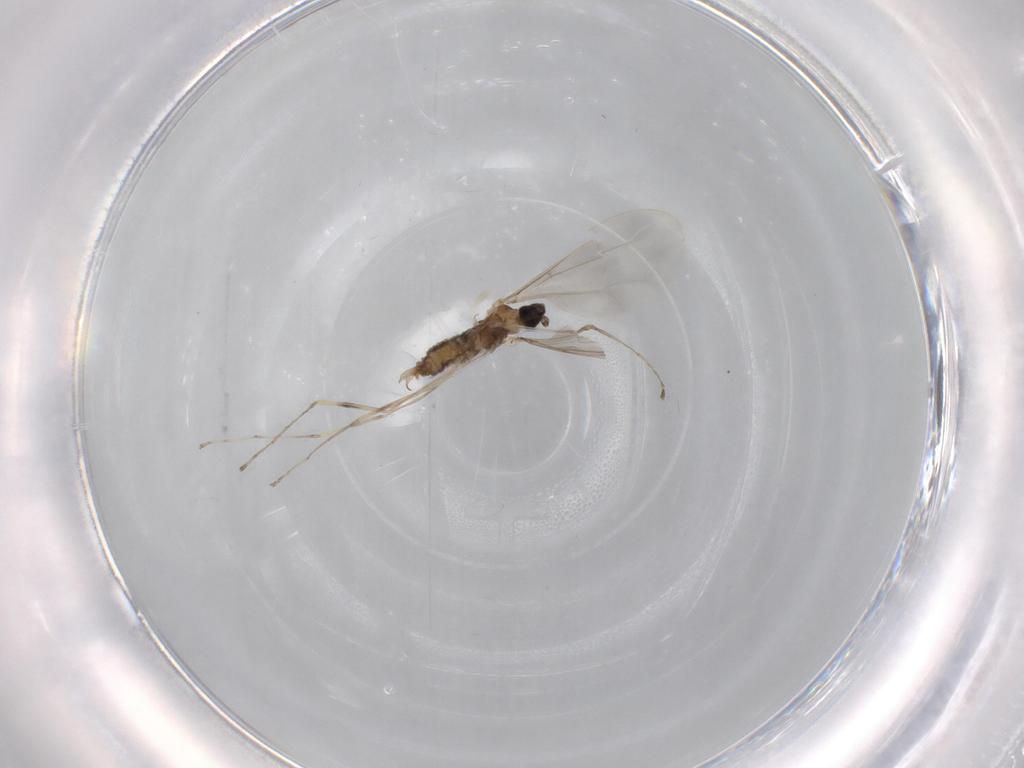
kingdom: Animalia
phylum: Arthropoda
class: Insecta
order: Diptera
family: Cecidomyiidae
